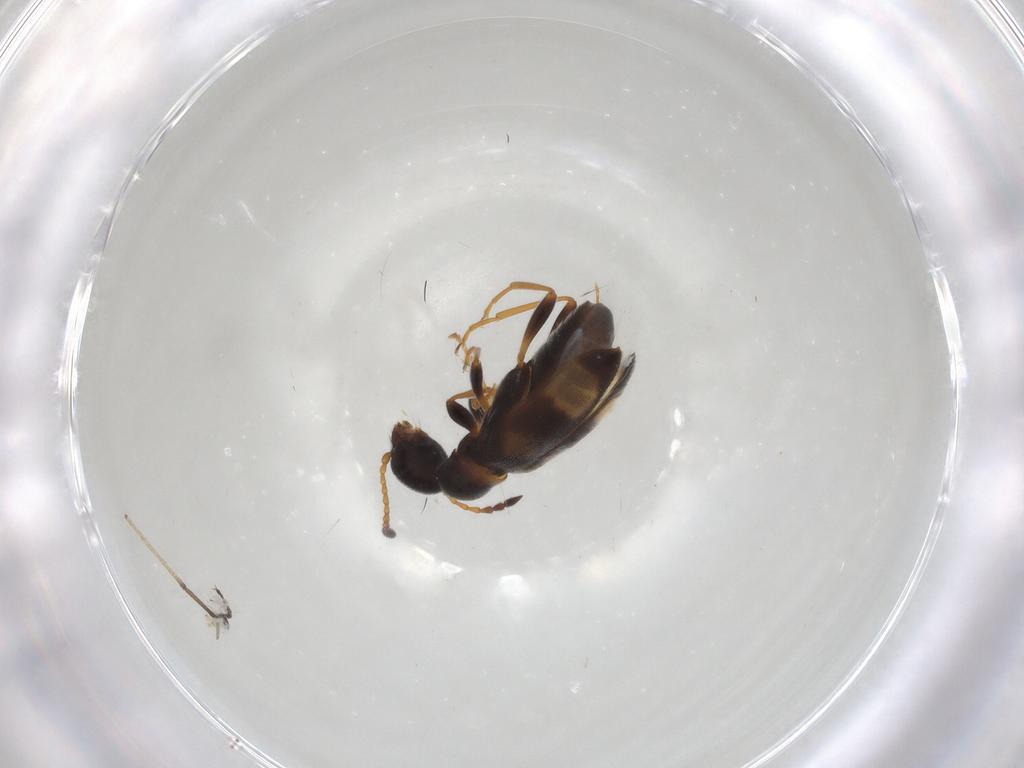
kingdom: Animalia
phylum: Arthropoda
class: Insecta
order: Coleoptera
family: Anthicidae
